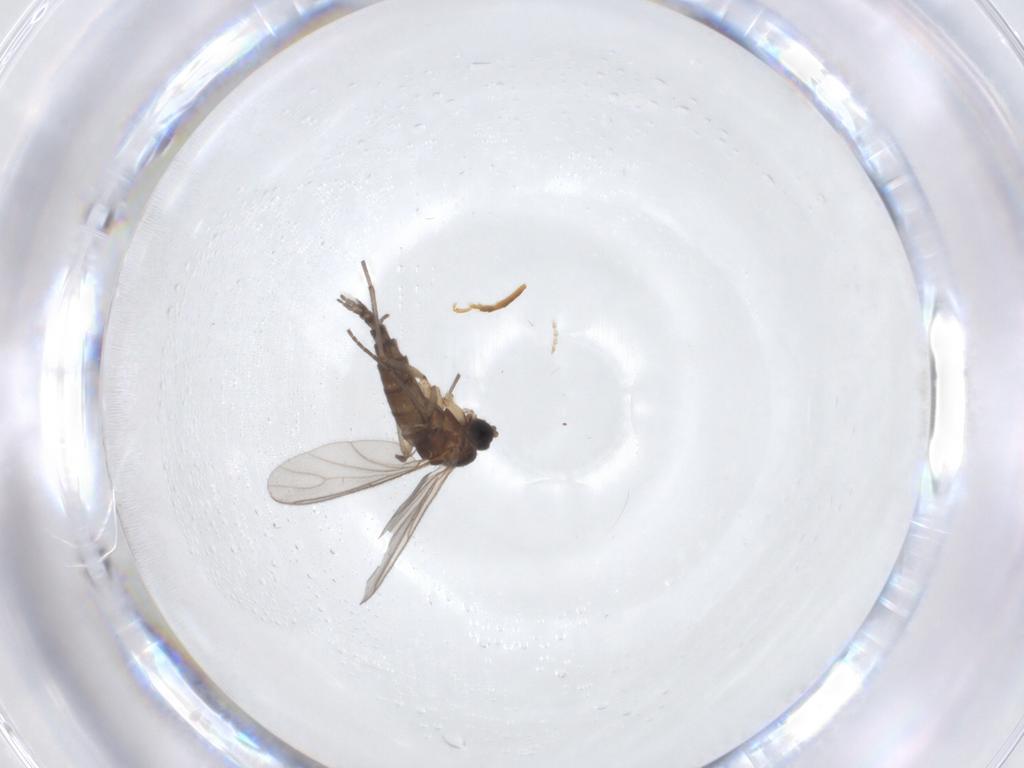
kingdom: Animalia
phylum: Arthropoda
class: Insecta
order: Diptera
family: Sciaridae
